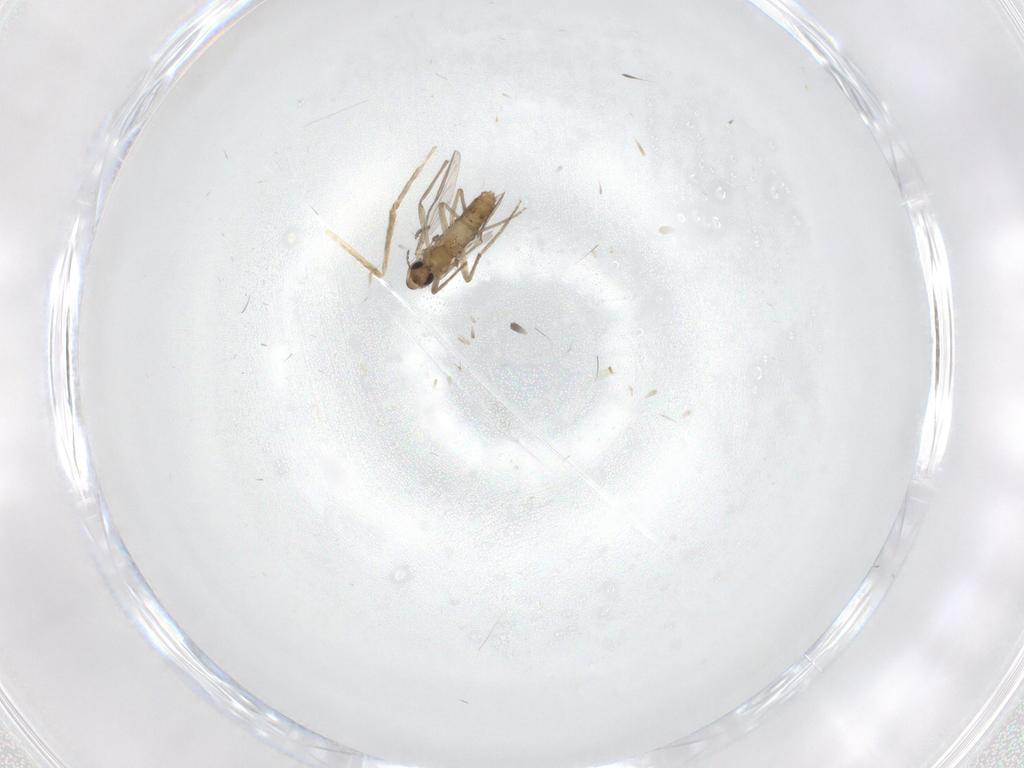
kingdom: Animalia
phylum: Arthropoda
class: Insecta
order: Diptera
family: Chironomidae
